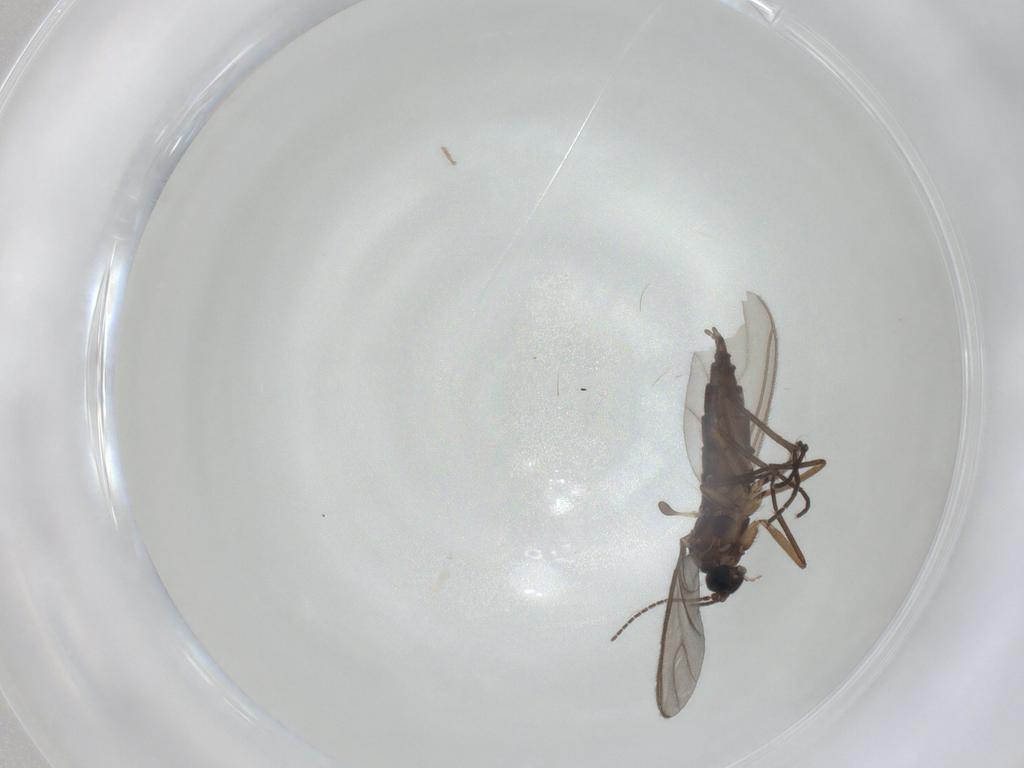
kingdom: Animalia
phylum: Arthropoda
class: Insecta
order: Diptera
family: Sciaridae
